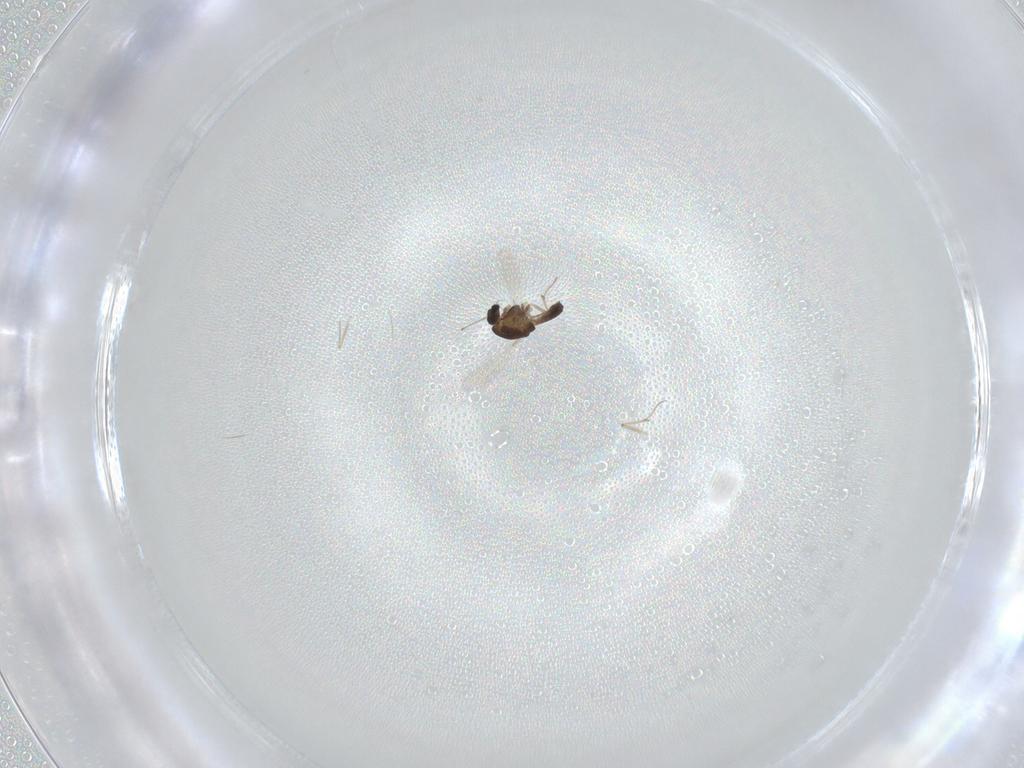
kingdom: Animalia
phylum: Arthropoda
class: Insecta
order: Diptera
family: Chironomidae
